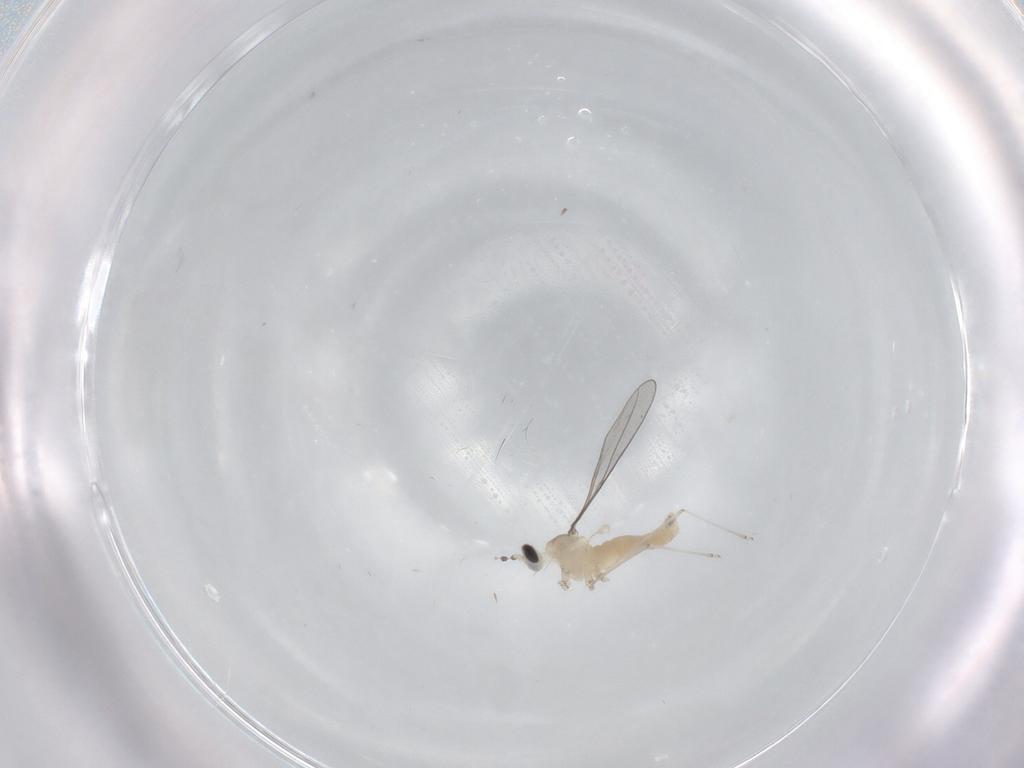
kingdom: Animalia
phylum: Arthropoda
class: Insecta
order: Diptera
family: Cecidomyiidae
